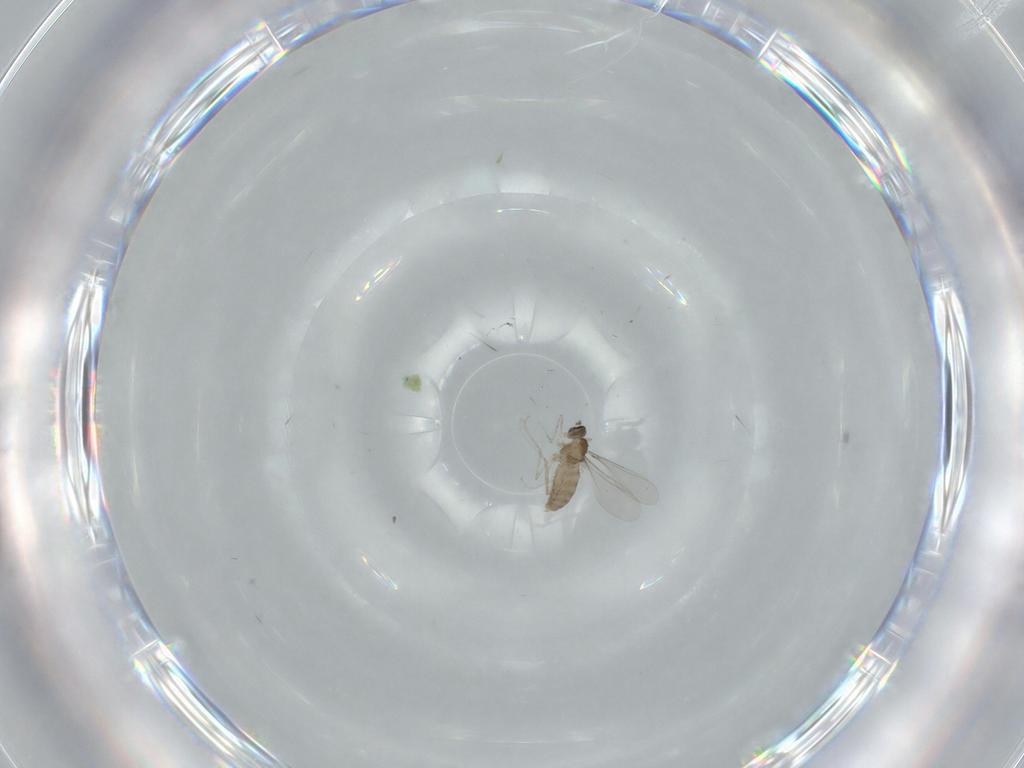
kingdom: Animalia
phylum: Arthropoda
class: Insecta
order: Diptera
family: Cecidomyiidae
